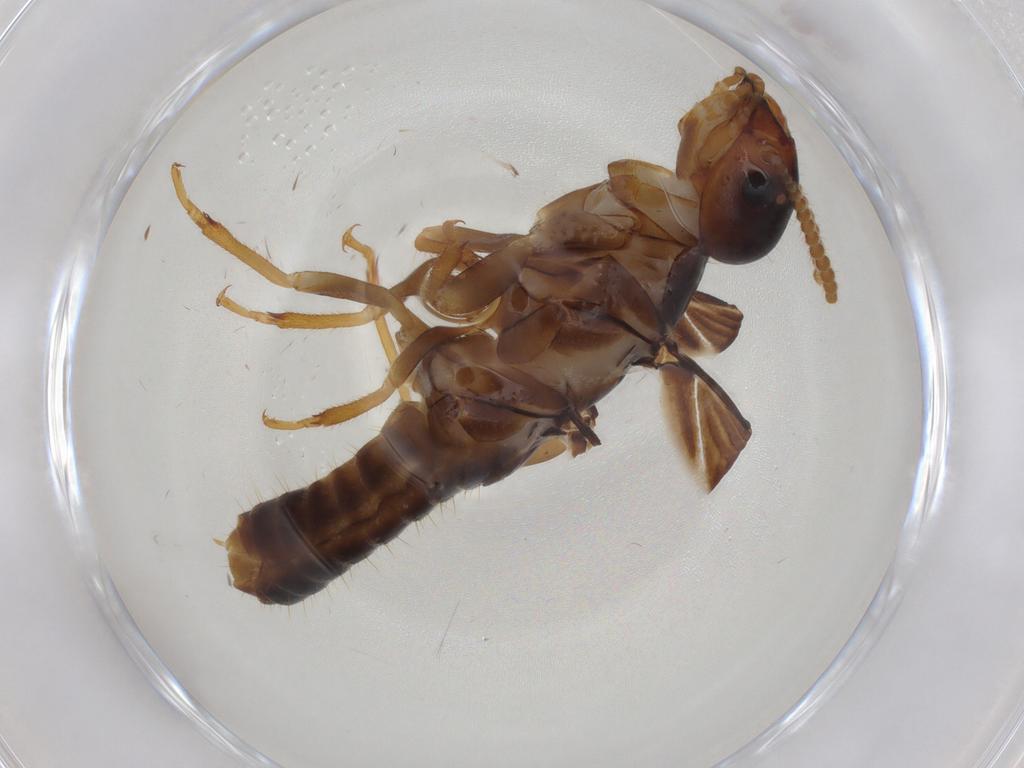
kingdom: Animalia
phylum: Arthropoda
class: Insecta
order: Blattodea
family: Kalotermitidae
